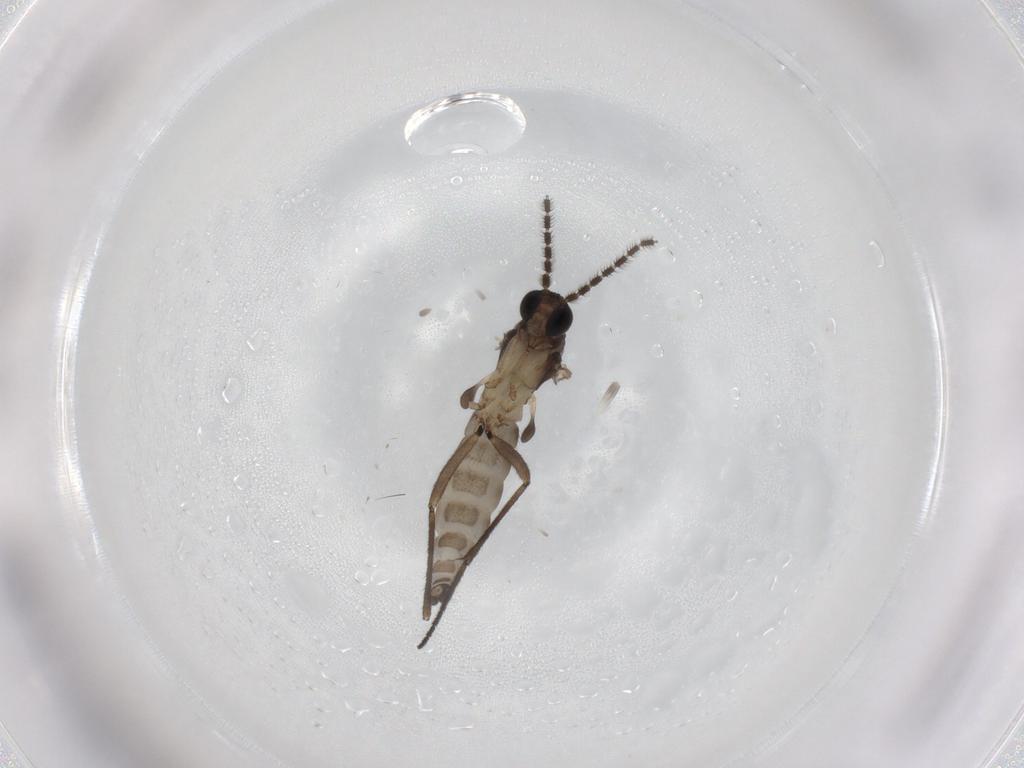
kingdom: Animalia
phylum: Arthropoda
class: Insecta
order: Diptera
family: Sciaridae
